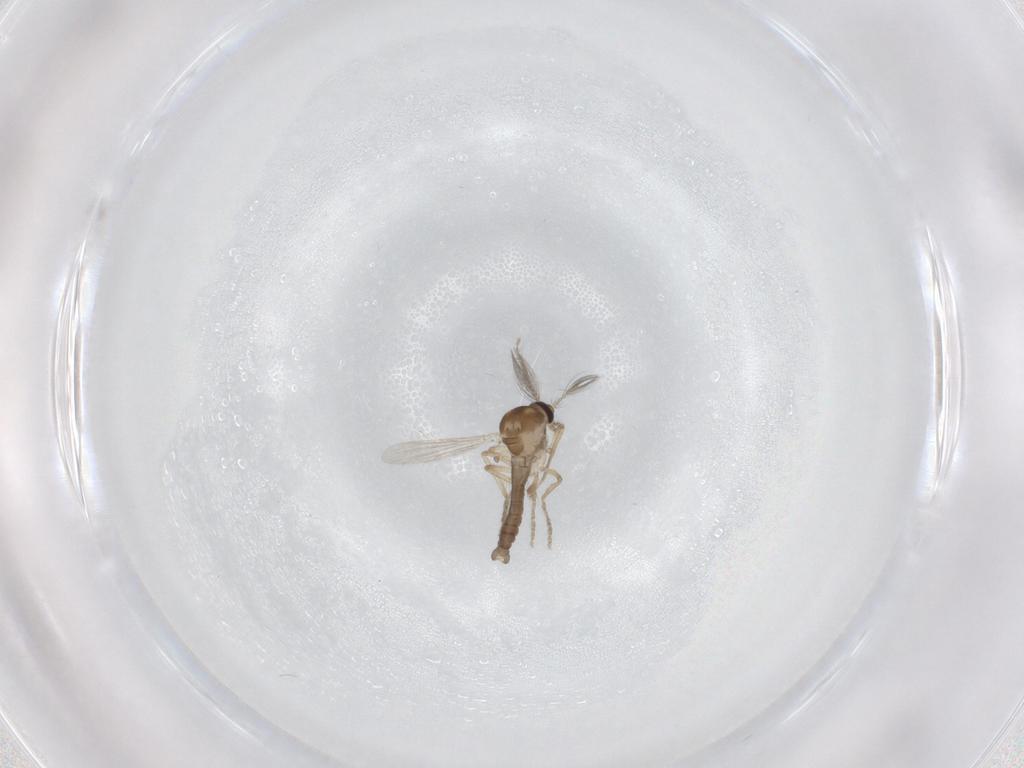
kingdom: Animalia
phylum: Arthropoda
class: Insecta
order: Diptera
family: Ceratopogonidae
